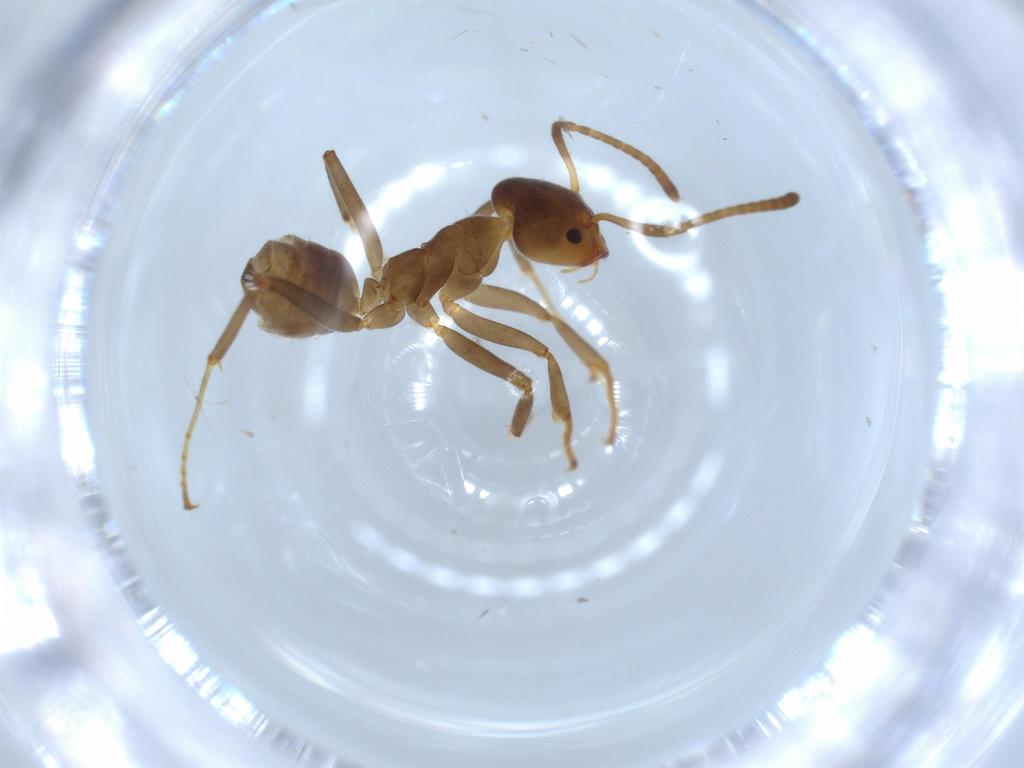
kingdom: Animalia
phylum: Arthropoda
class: Insecta
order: Hymenoptera
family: Formicidae
